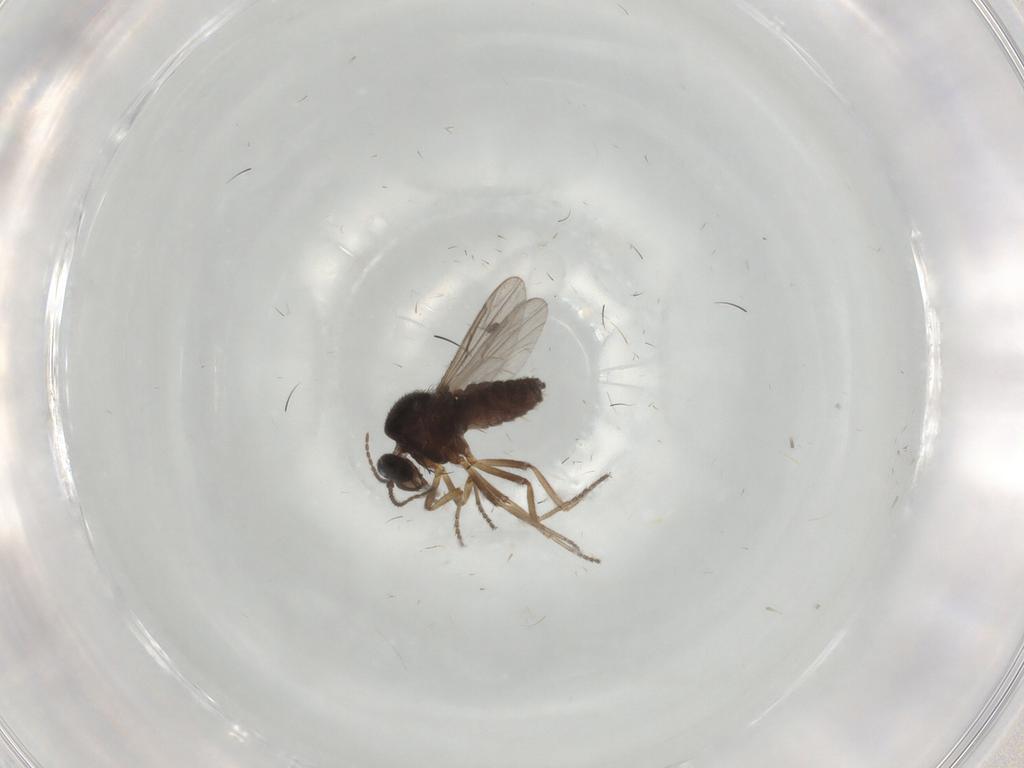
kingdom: Animalia
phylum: Arthropoda
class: Insecta
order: Diptera
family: Ceratopogonidae
